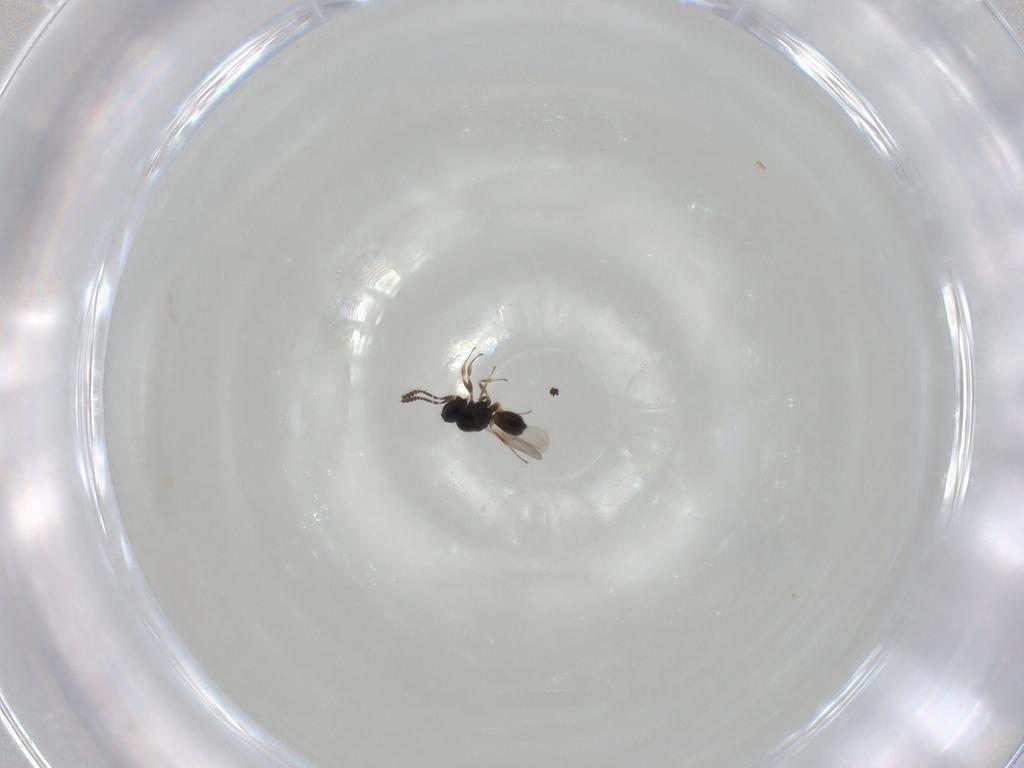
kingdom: Animalia
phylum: Arthropoda
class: Insecta
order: Hymenoptera
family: Scelionidae
